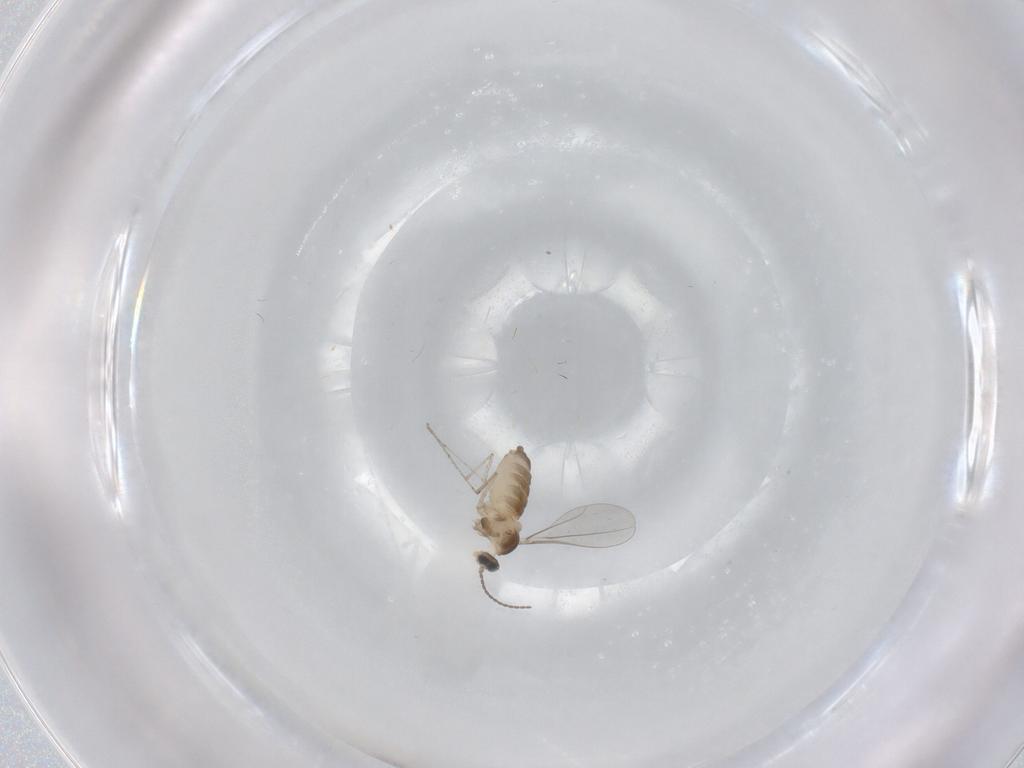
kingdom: Animalia
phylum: Arthropoda
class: Insecta
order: Diptera
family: Cecidomyiidae
